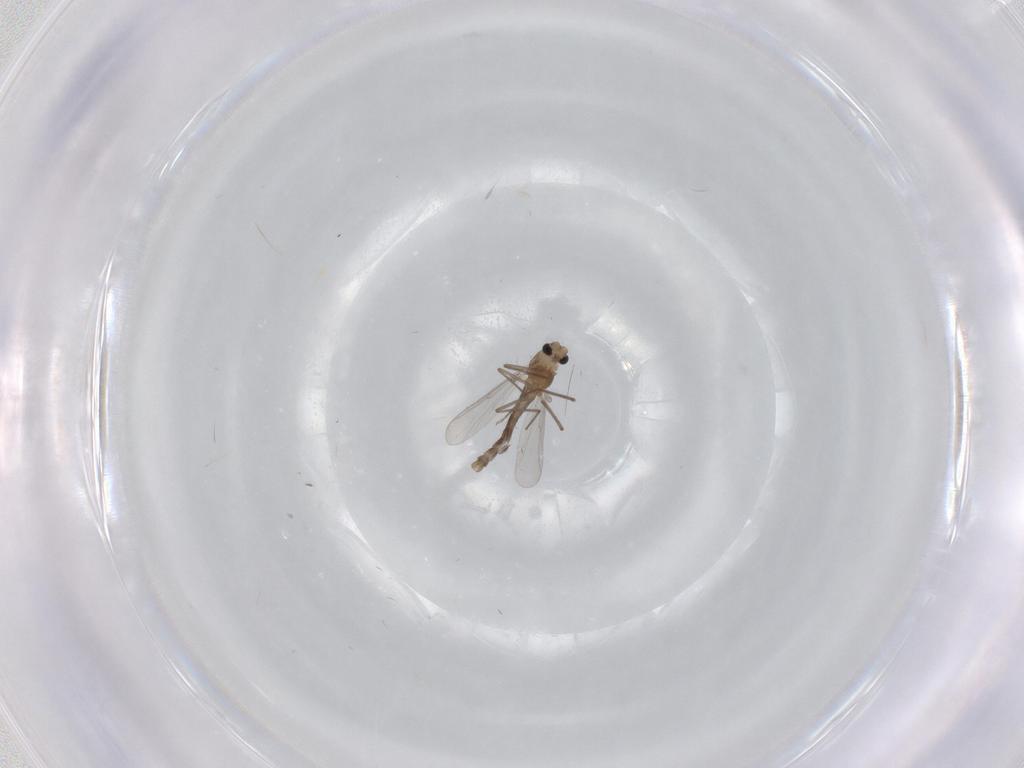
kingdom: Animalia
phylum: Arthropoda
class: Insecta
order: Diptera
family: Chironomidae
